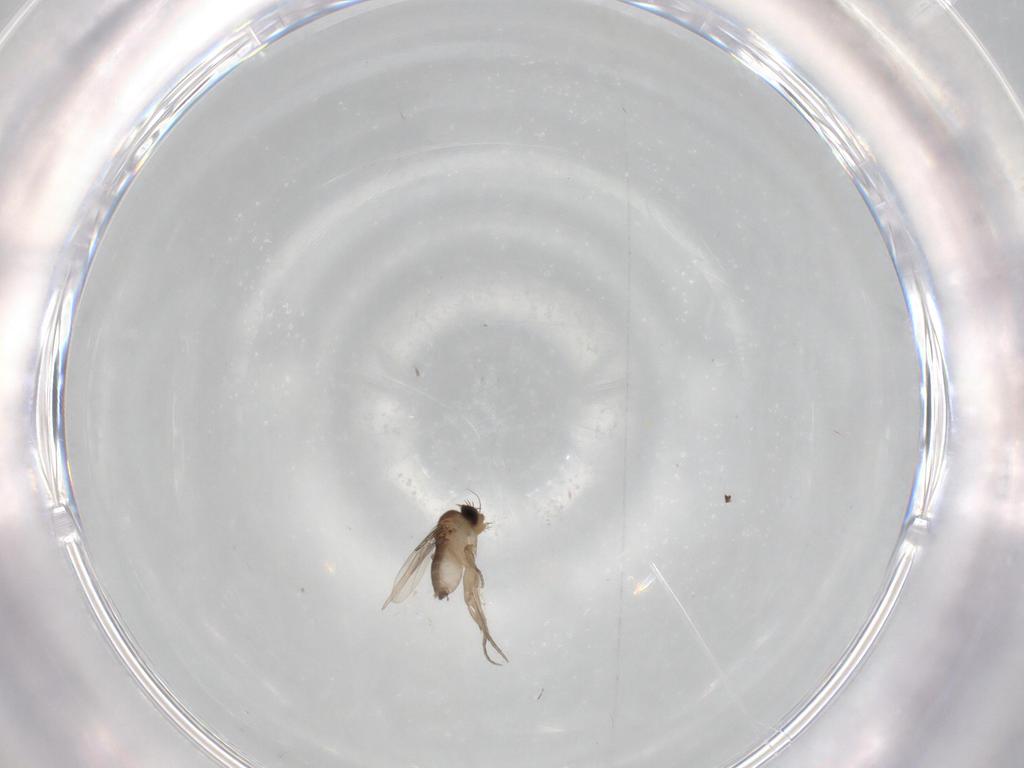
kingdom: Animalia
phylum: Arthropoda
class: Insecta
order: Diptera
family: Phoridae
